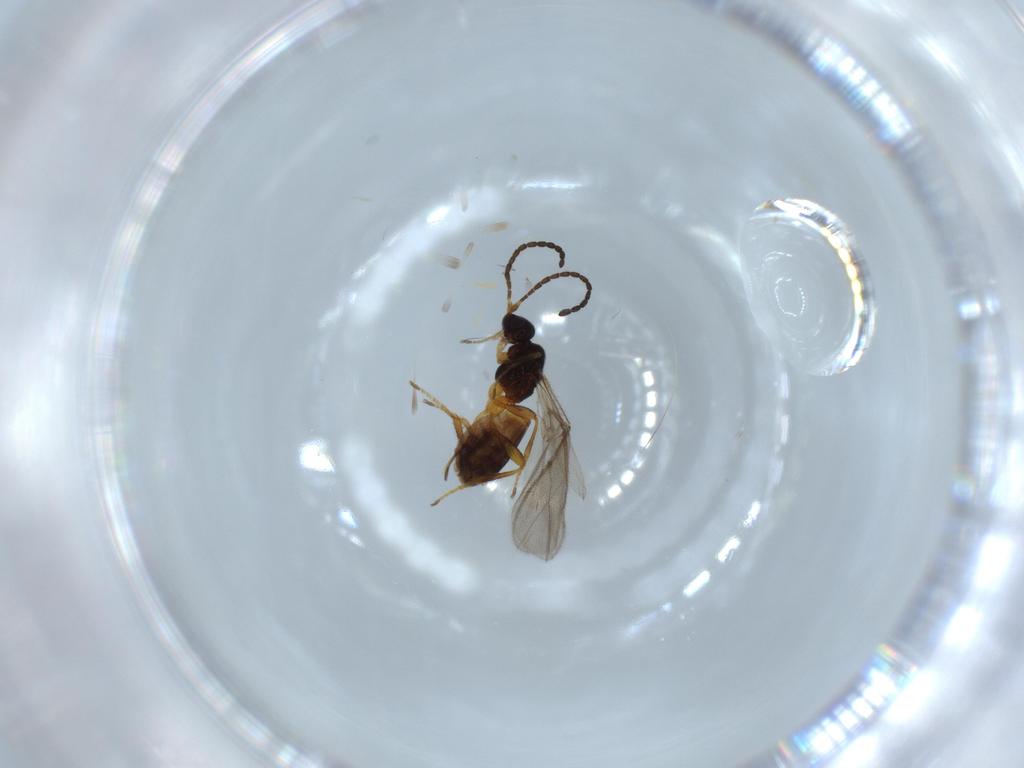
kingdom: Animalia
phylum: Arthropoda
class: Insecta
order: Hymenoptera
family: Braconidae
